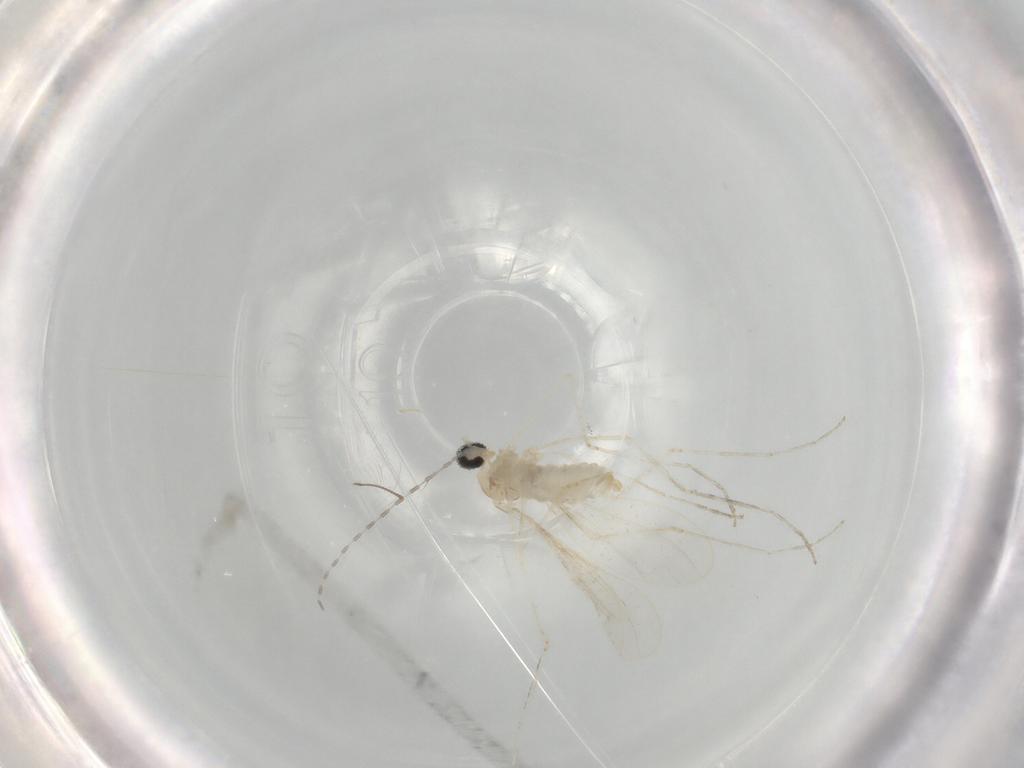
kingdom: Animalia
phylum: Arthropoda
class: Insecta
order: Diptera
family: Cecidomyiidae
